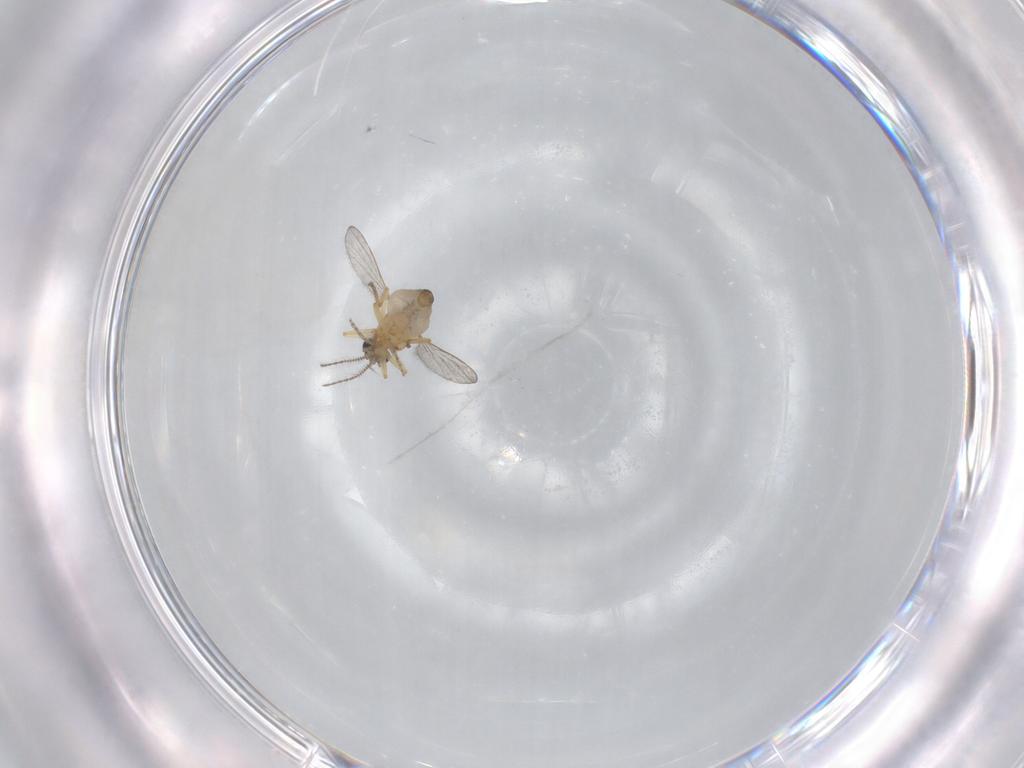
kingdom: Animalia
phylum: Arthropoda
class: Insecta
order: Diptera
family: Ceratopogonidae
